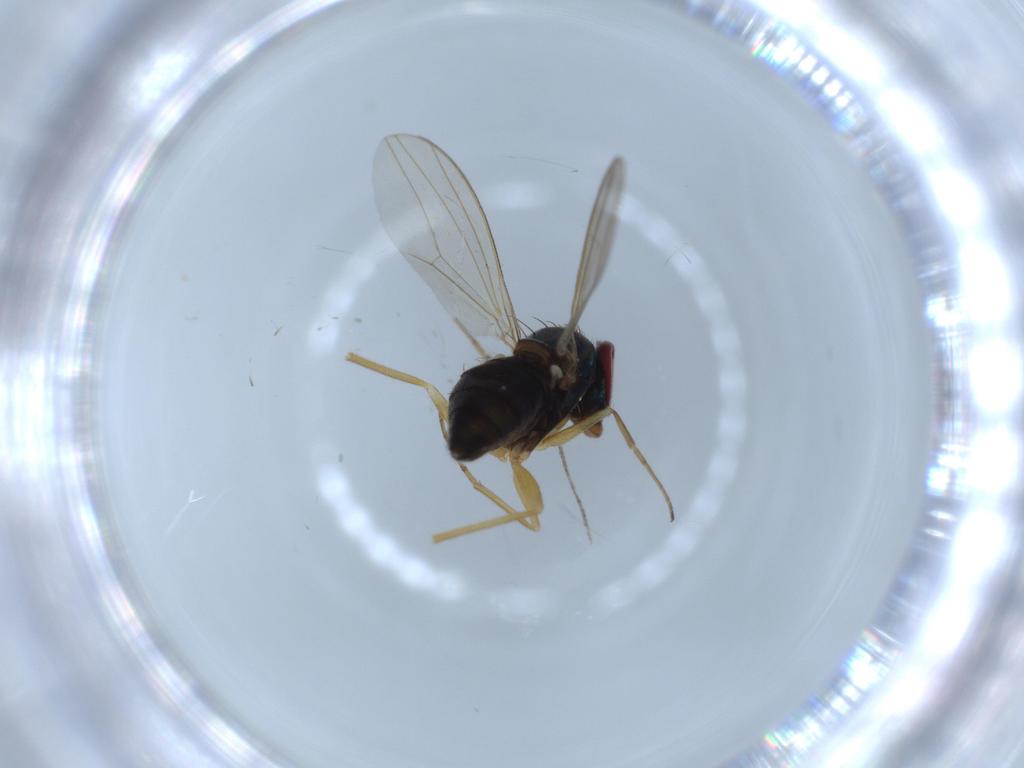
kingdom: Animalia
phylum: Arthropoda
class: Insecta
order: Diptera
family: Dolichopodidae
